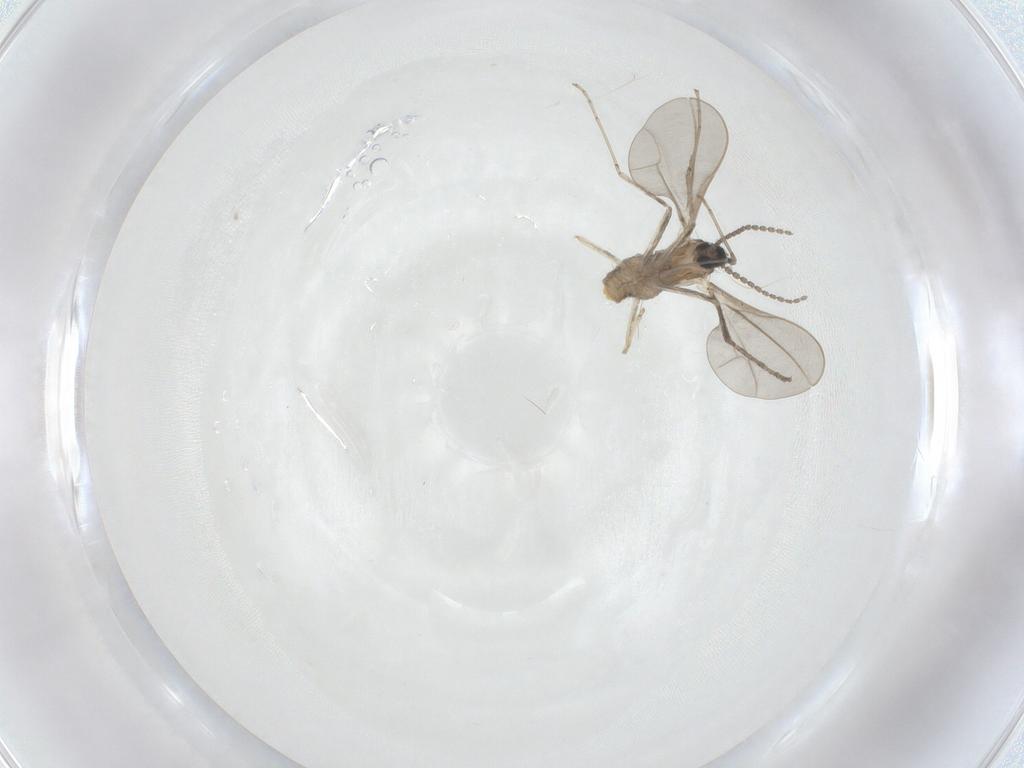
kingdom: Animalia
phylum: Arthropoda
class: Insecta
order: Diptera
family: Cecidomyiidae
